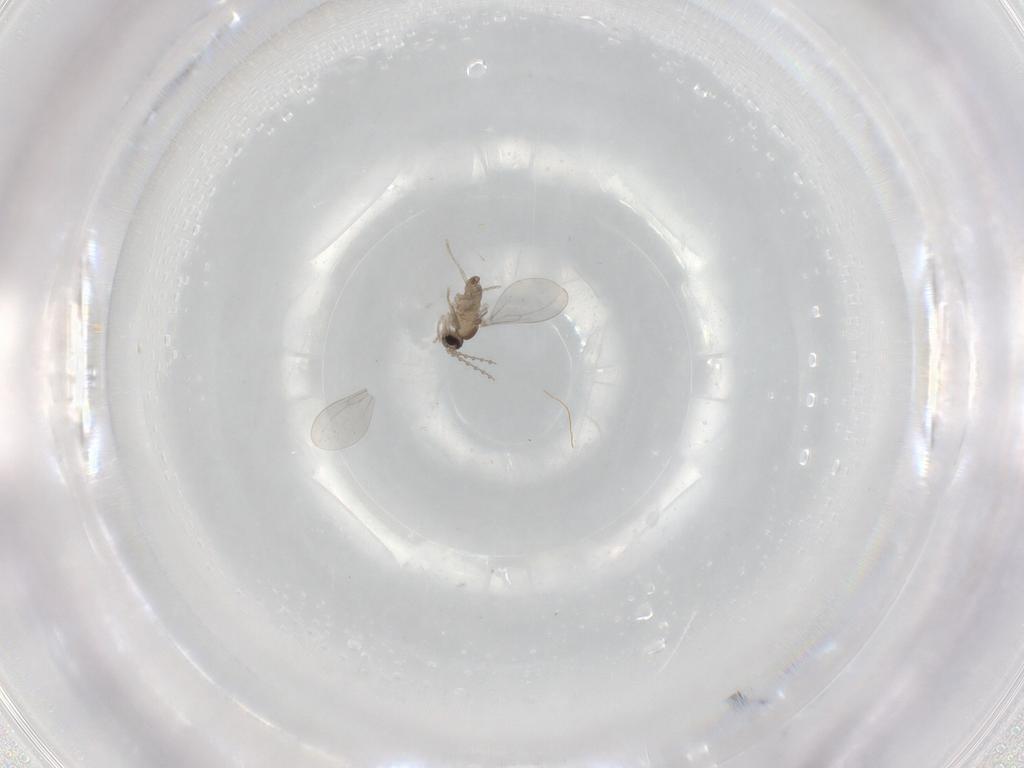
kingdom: Animalia
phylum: Arthropoda
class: Insecta
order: Diptera
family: Cecidomyiidae
